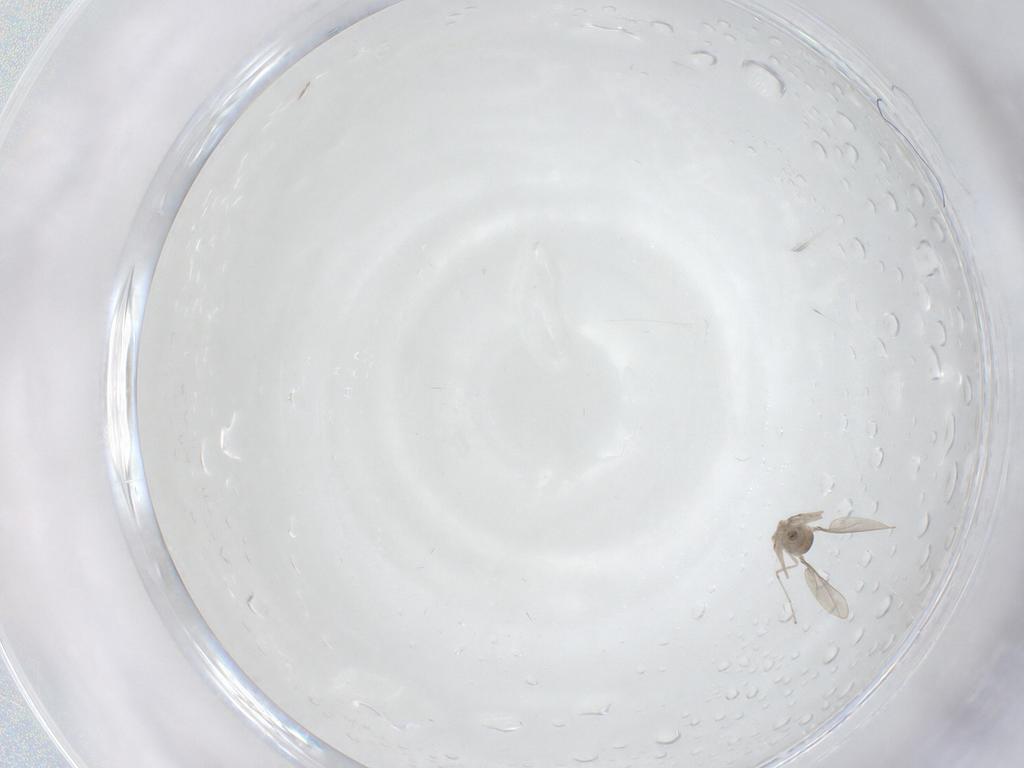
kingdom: Animalia
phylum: Arthropoda
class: Insecta
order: Diptera
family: Cecidomyiidae
